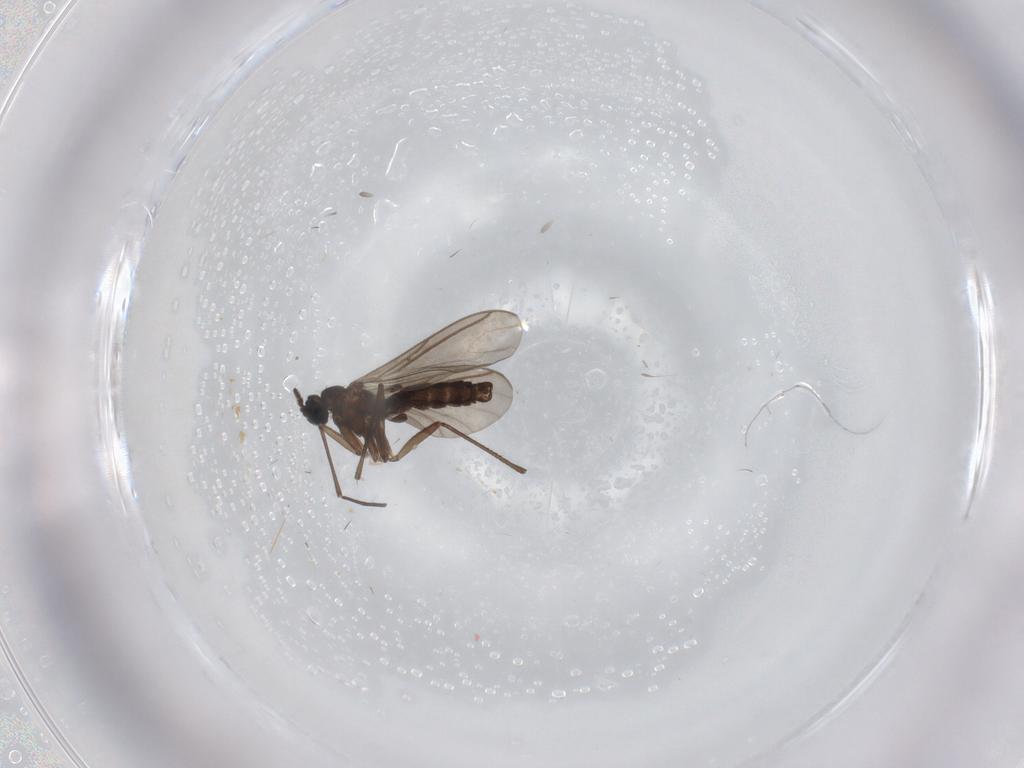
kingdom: Animalia
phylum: Arthropoda
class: Insecta
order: Diptera
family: Sciaridae
